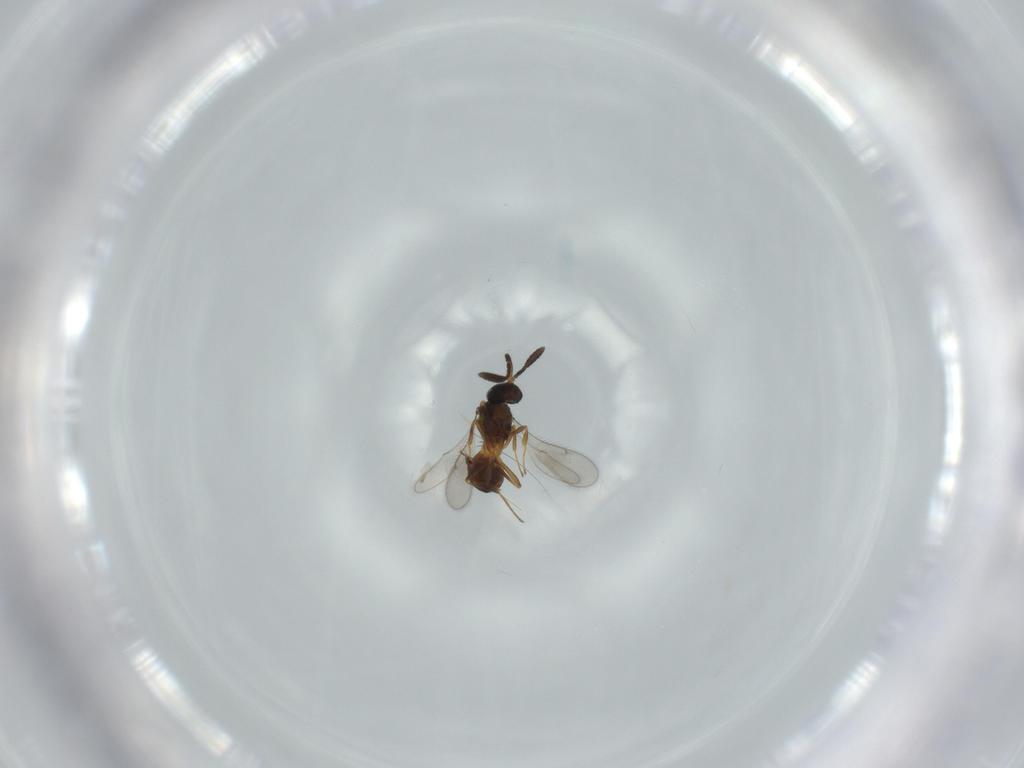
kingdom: Animalia
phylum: Arthropoda
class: Insecta
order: Hymenoptera
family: Scelionidae
